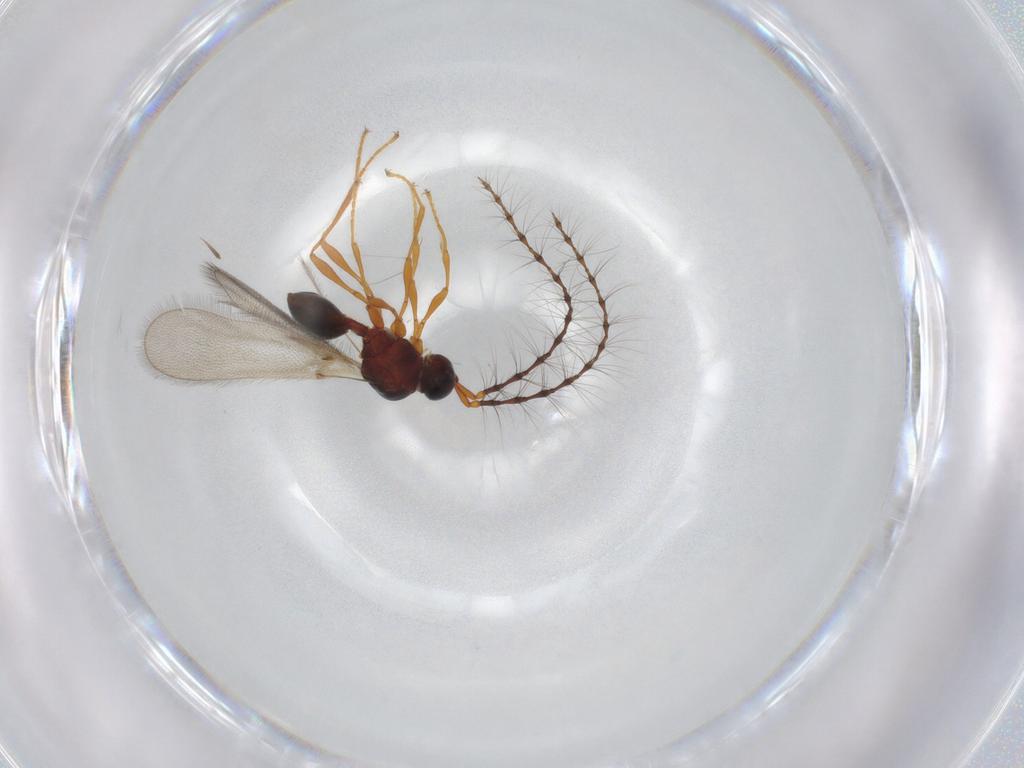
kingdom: Animalia
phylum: Arthropoda
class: Insecta
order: Hymenoptera
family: Diapriidae
